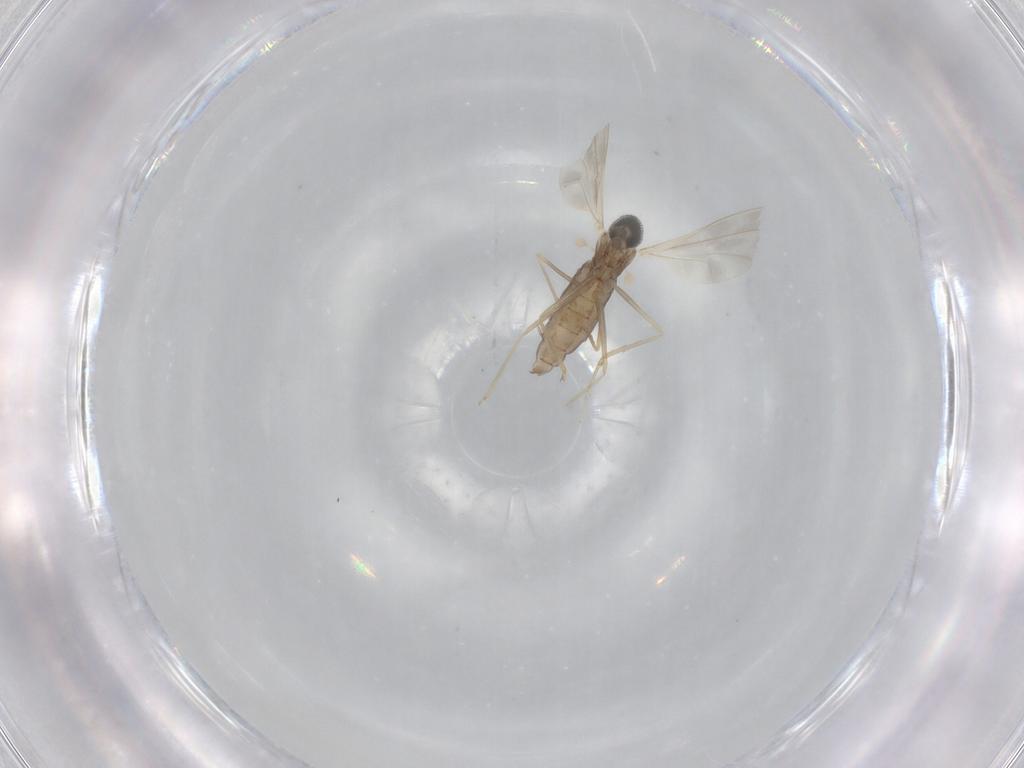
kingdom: Animalia
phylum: Arthropoda
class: Insecta
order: Diptera
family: Cecidomyiidae
